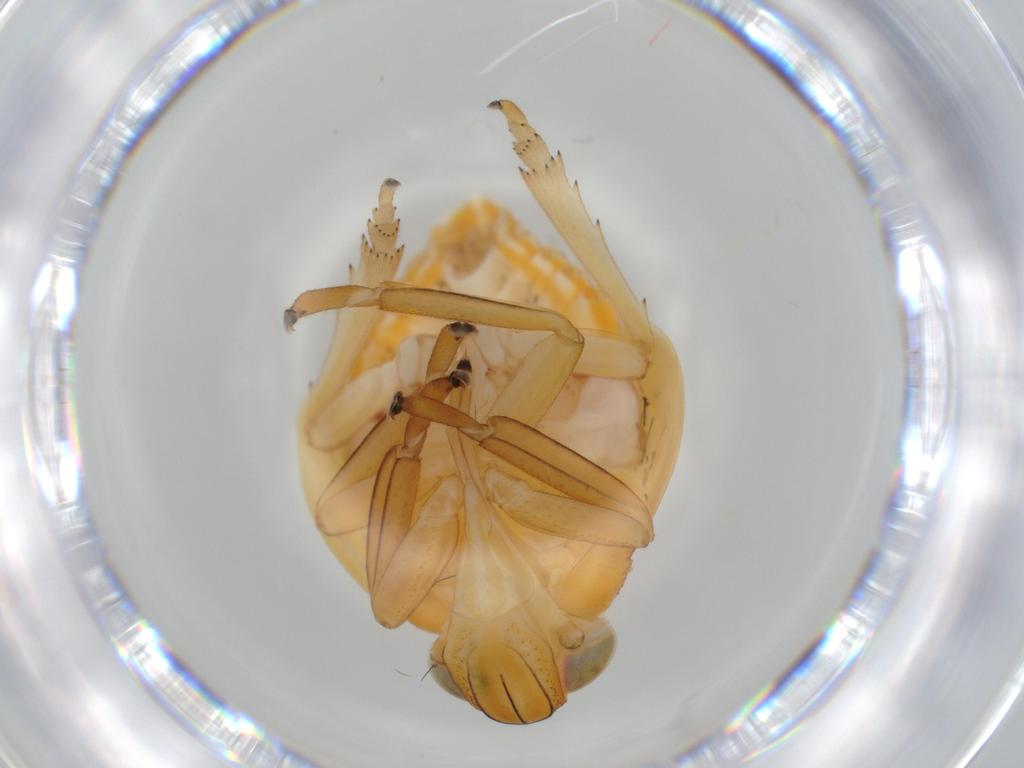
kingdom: Animalia
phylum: Arthropoda
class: Insecta
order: Hemiptera
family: Issidae
